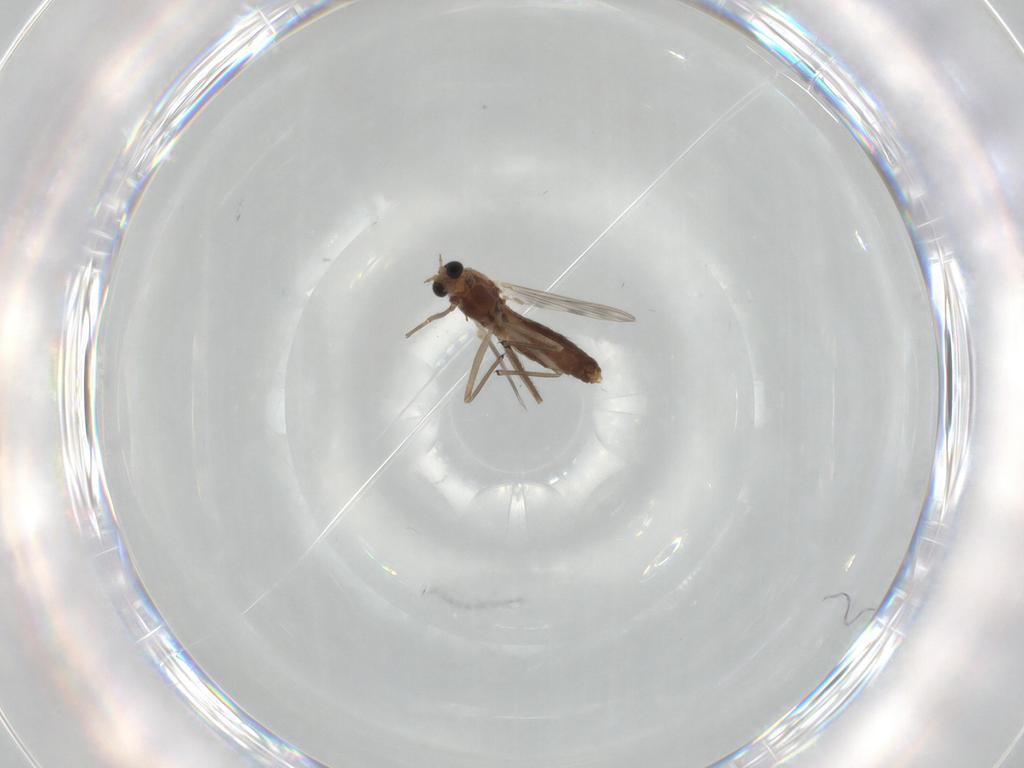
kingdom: Animalia
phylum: Arthropoda
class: Insecta
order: Diptera
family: Chironomidae
